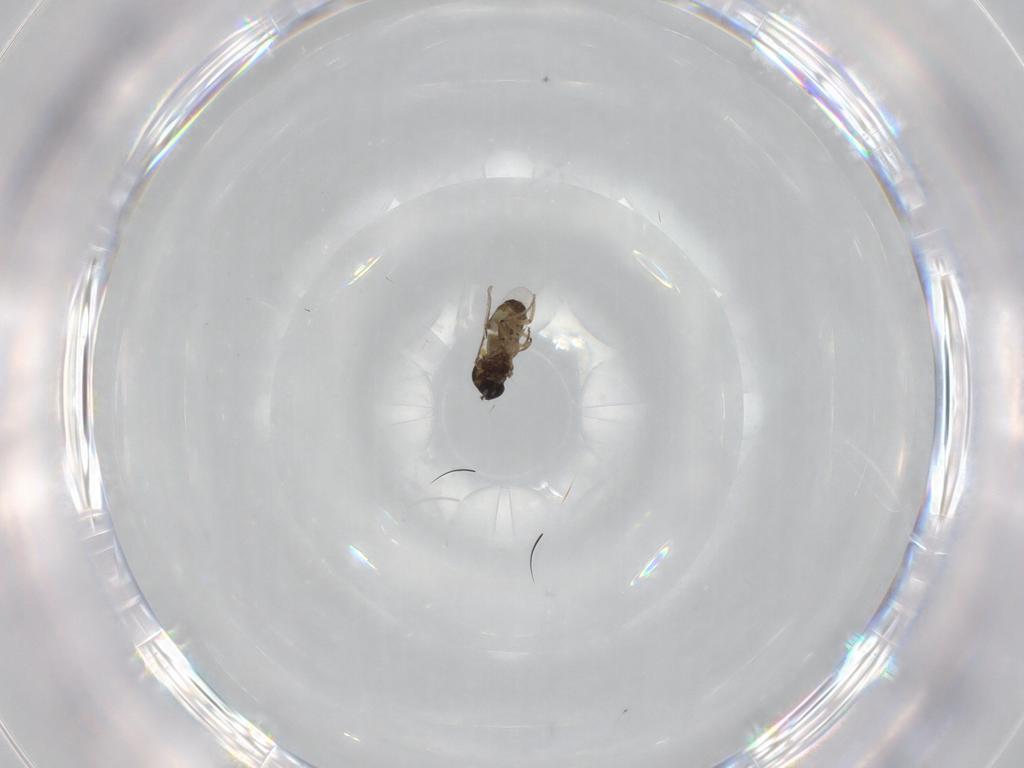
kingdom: Animalia
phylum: Arthropoda
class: Insecta
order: Diptera
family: Ceratopogonidae
